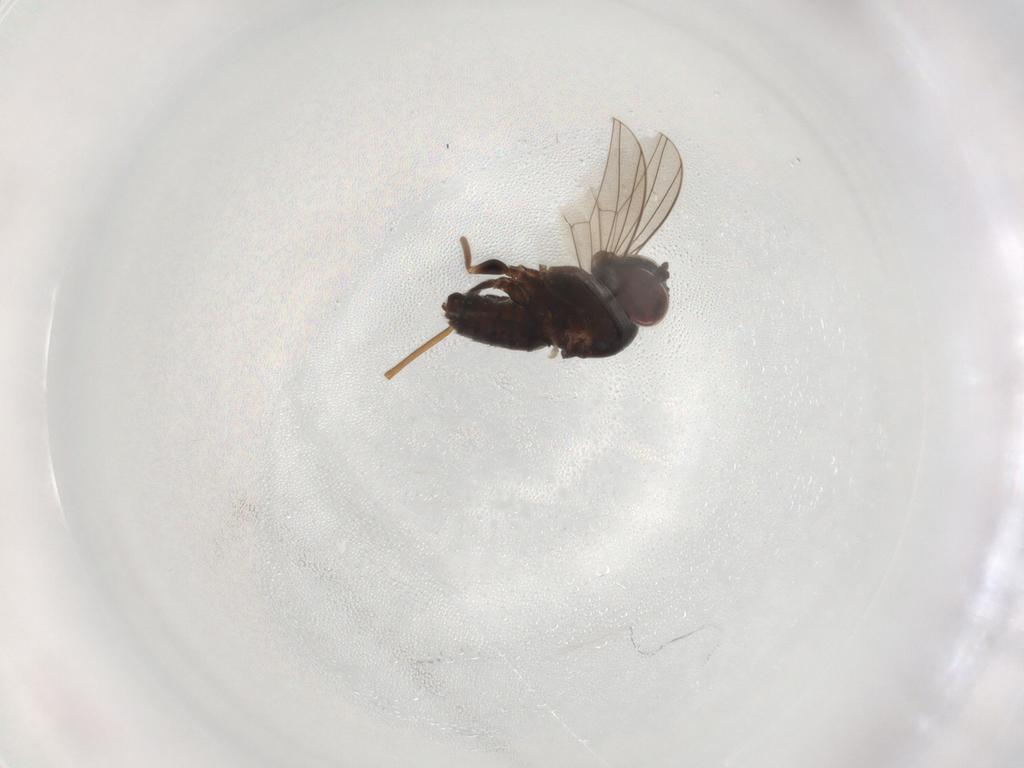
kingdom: Animalia
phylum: Arthropoda
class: Insecta
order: Diptera
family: Dolichopodidae
